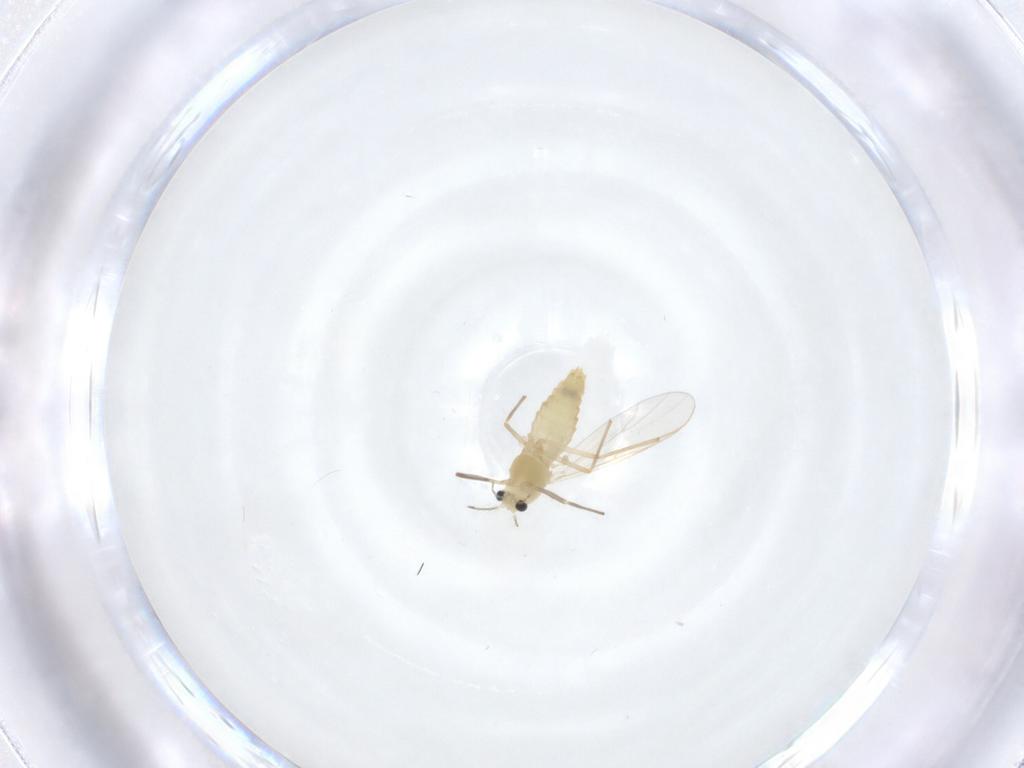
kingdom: Animalia
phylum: Arthropoda
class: Insecta
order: Diptera
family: Chironomidae
